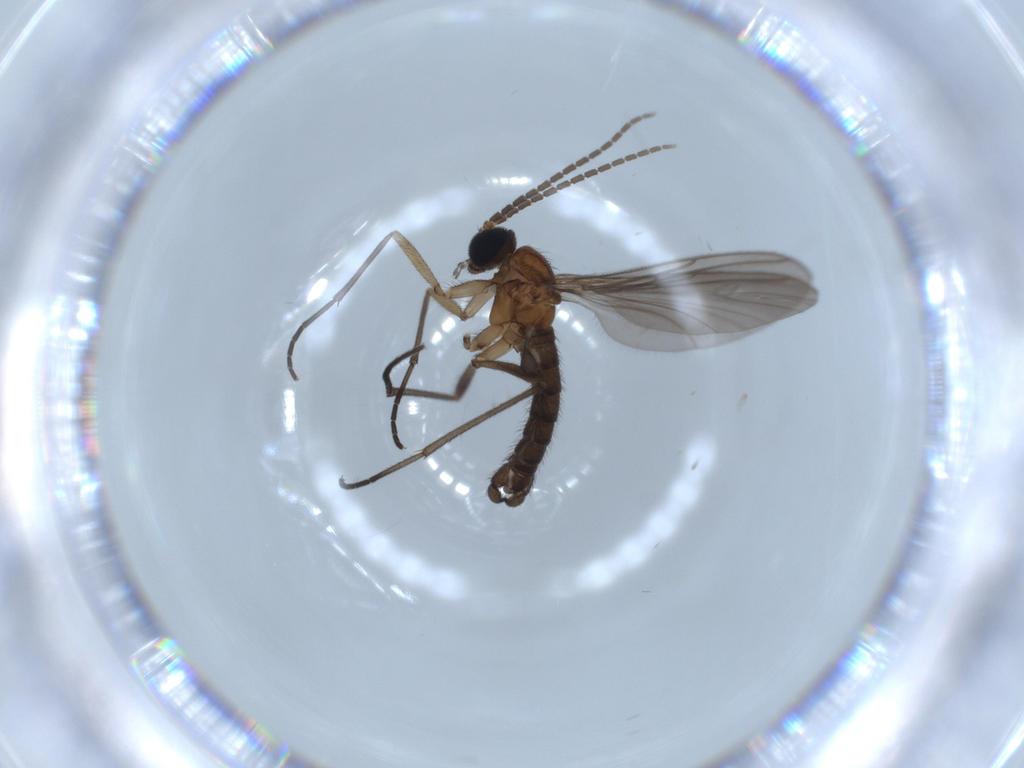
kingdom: Animalia
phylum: Arthropoda
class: Insecta
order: Diptera
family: Sciaridae
